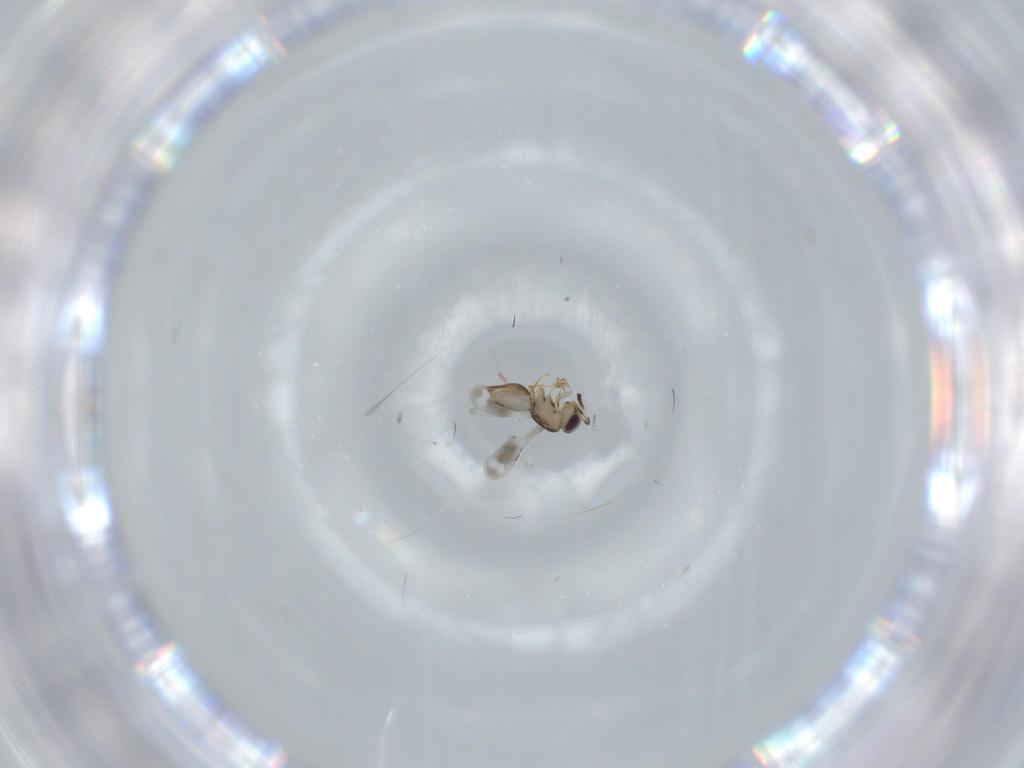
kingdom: Animalia
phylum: Arthropoda
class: Insecta
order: Hymenoptera
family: Scelionidae
